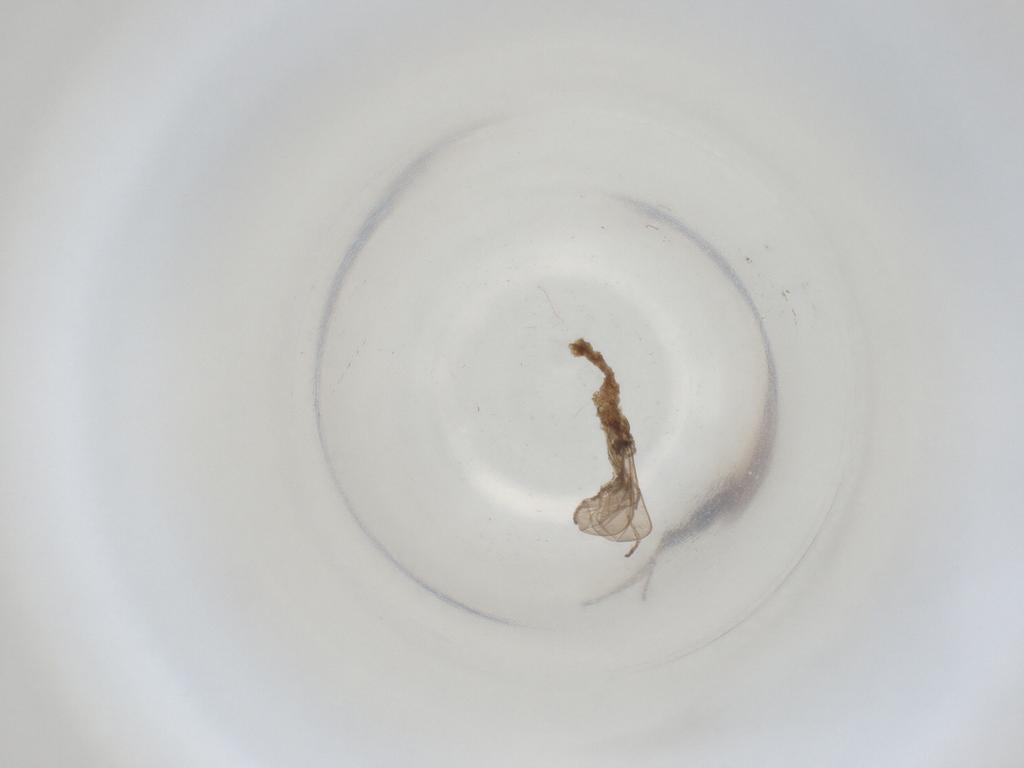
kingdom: Animalia
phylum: Arthropoda
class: Insecta
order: Diptera
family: Cecidomyiidae
